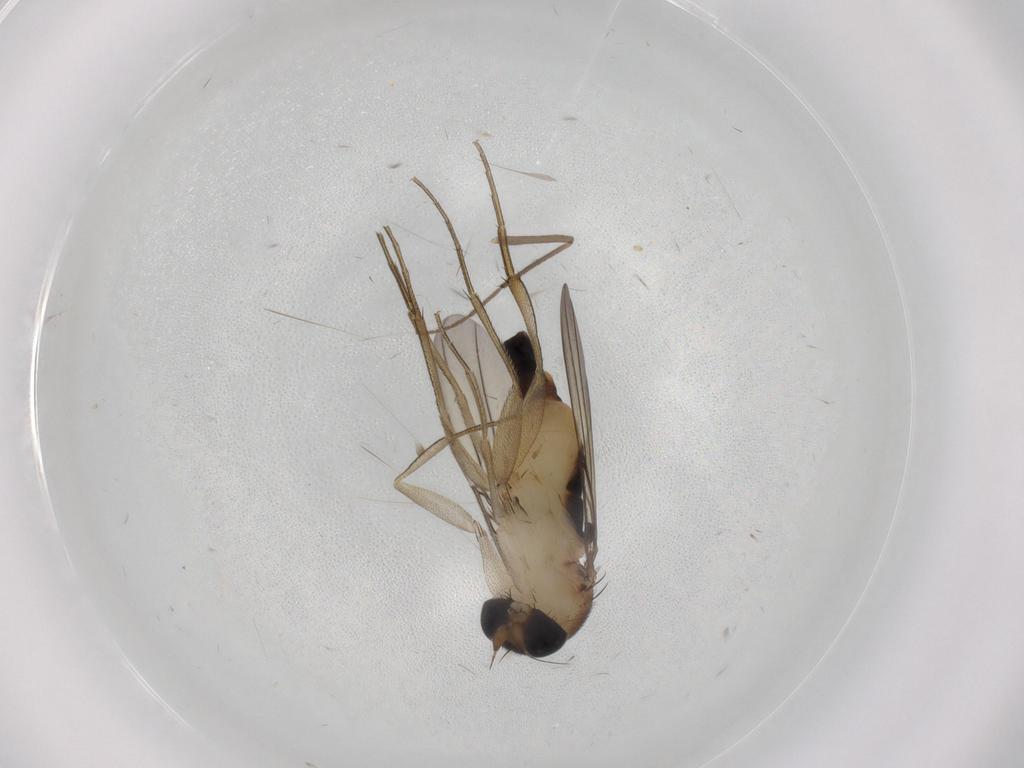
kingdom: Animalia
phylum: Arthropoda
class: Insecta
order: Diptera
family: Phoridae
